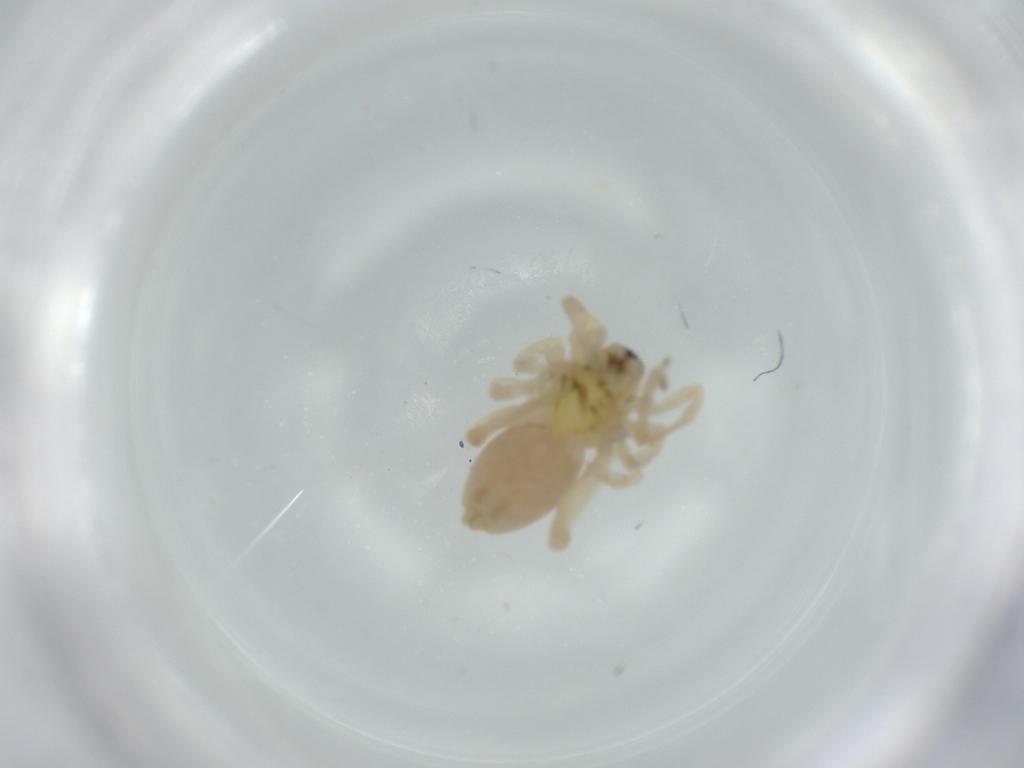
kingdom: Animalia
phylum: Arthropoda
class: Arachnida
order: Araneae
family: Anyphaenidae
